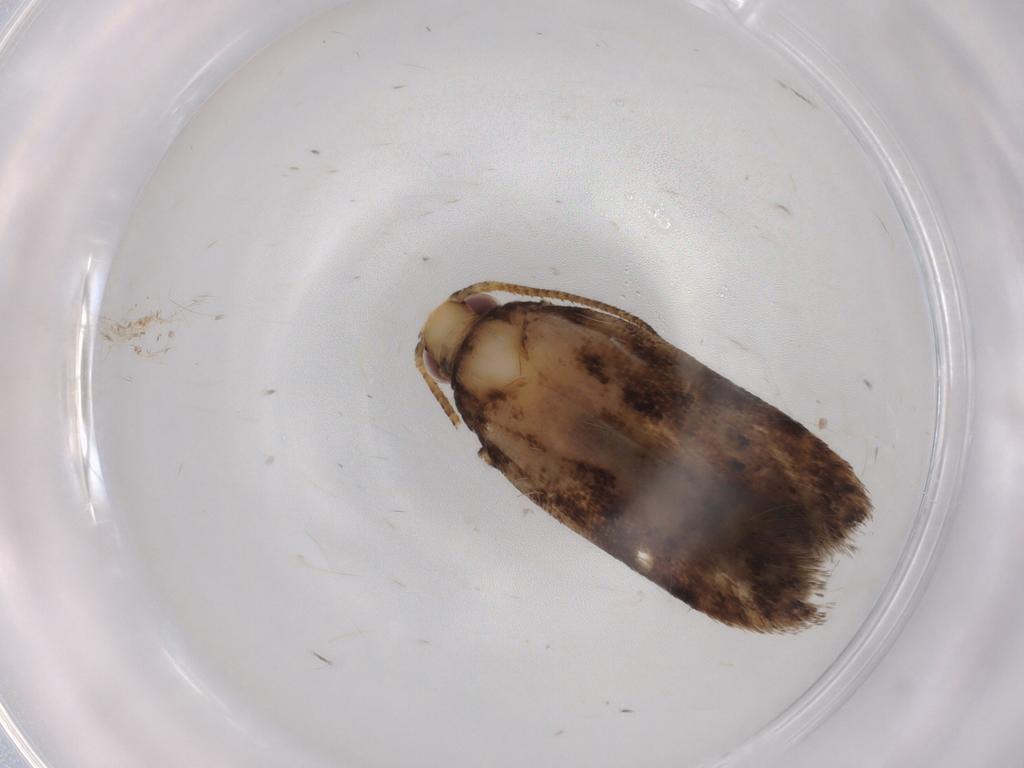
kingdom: Animalia
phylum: Arthropoda
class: Insecta
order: Lepidoptera
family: Gelechiidae
